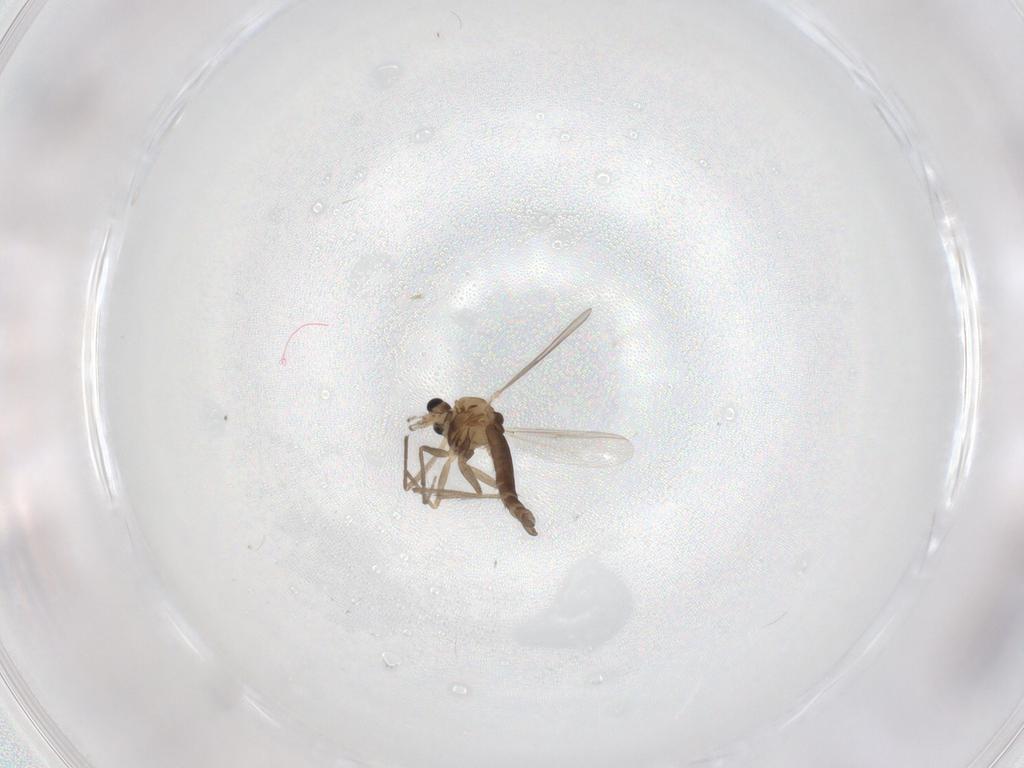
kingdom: Animalia
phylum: Arthropoda
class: Insecta
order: Diptera
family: Chironomidae
